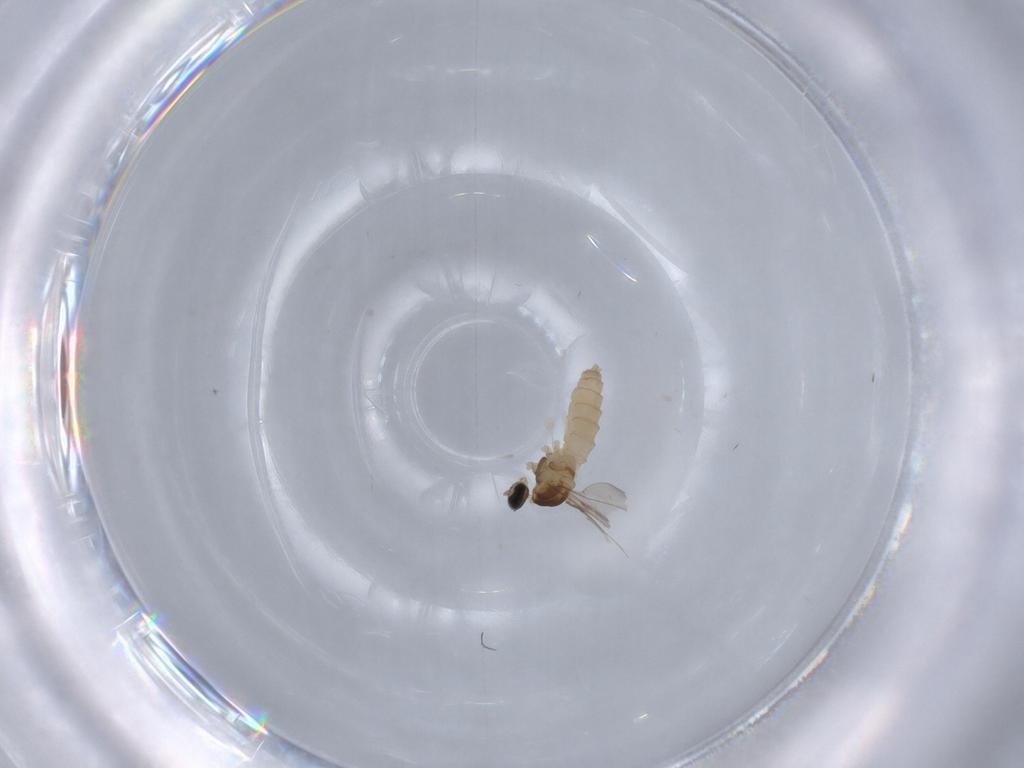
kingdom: Animalia
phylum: Arthropoda
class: Insecta
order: Diptera
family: Cecidomyiidae
